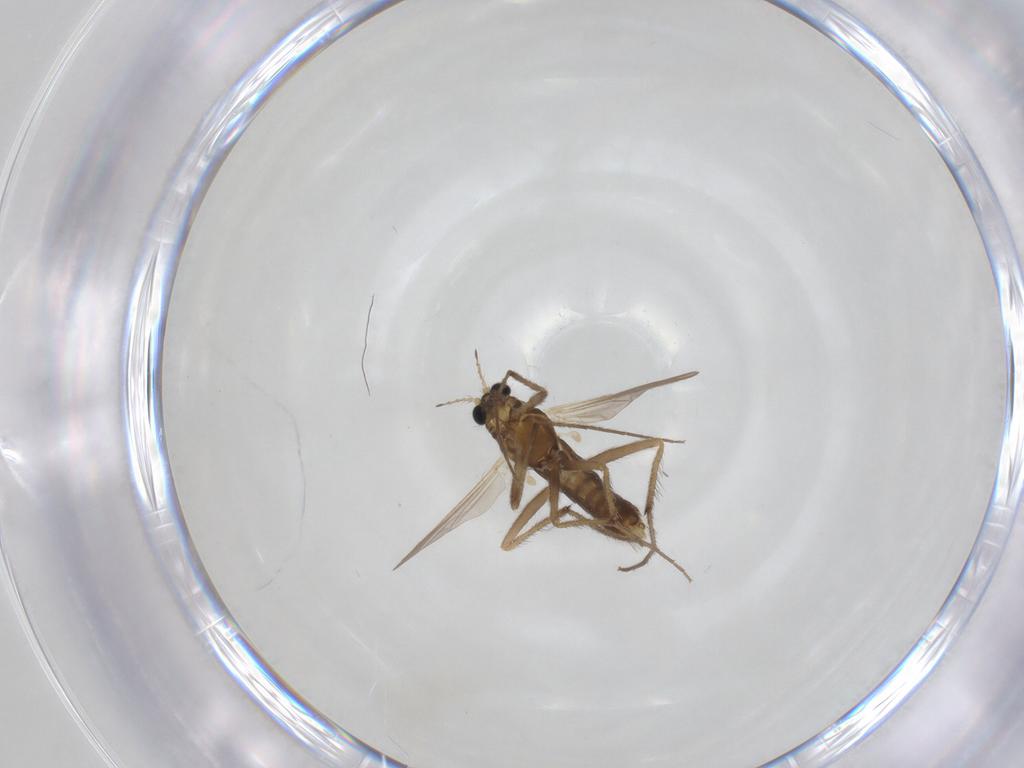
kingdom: Animalia
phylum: Arthropoda
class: Insecta
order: Diptera
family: Chironomidae
